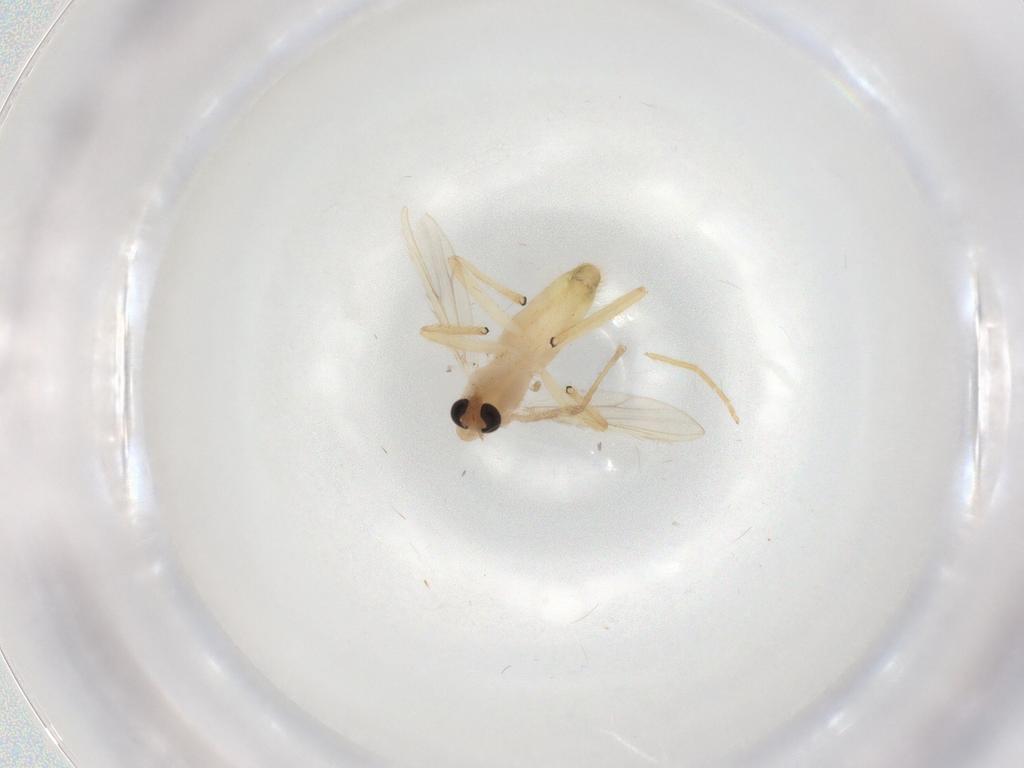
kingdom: Animalia
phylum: Arthropoda
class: Insecta
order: Diptera
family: Chironomidae
